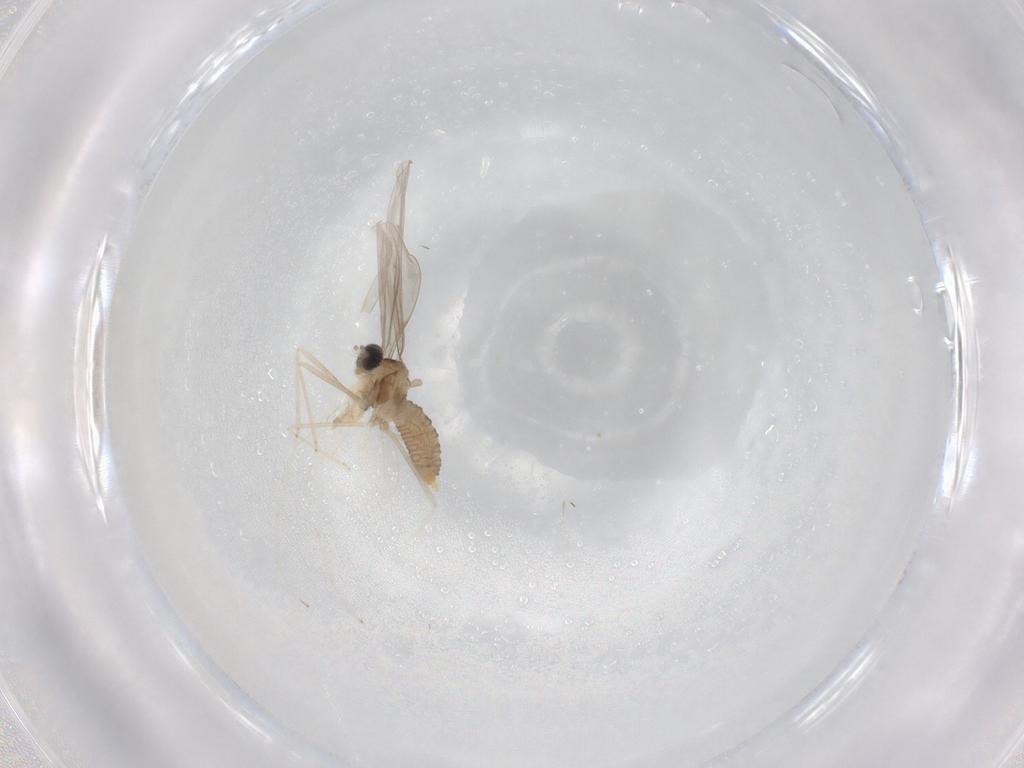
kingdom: Animalia
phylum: Arthropoda
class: Insecta
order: Diptera
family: Cecidomyiidae
